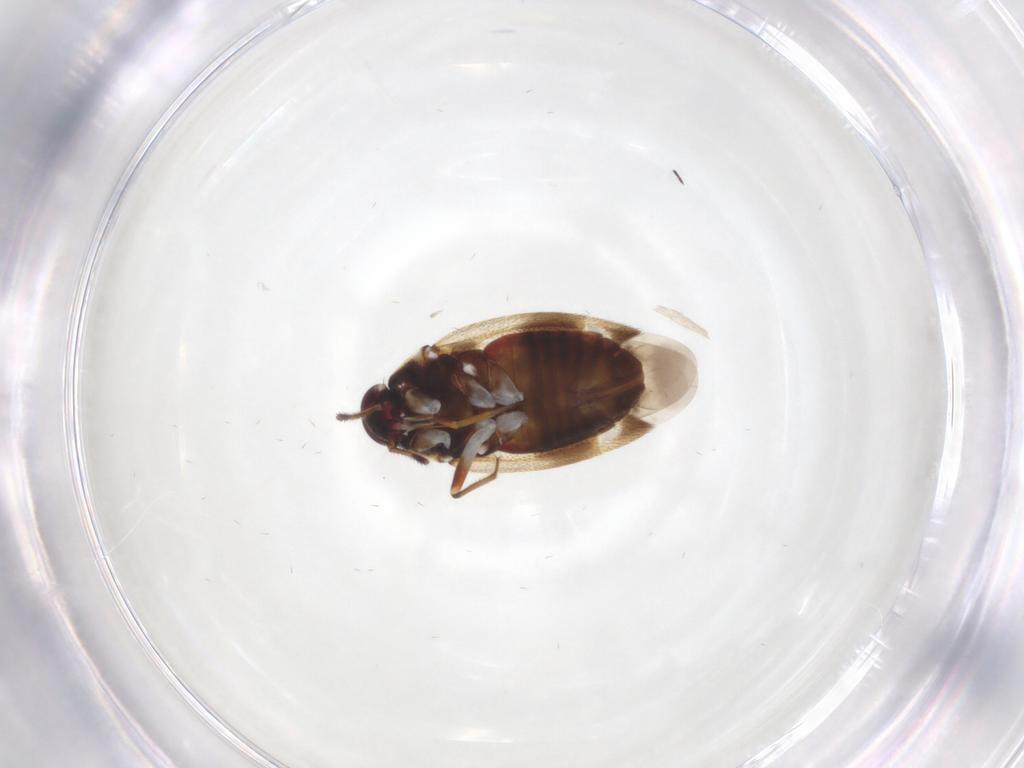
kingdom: Animalia
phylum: Arthropoda
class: Insecta
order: Hemiptera
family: Miridae
